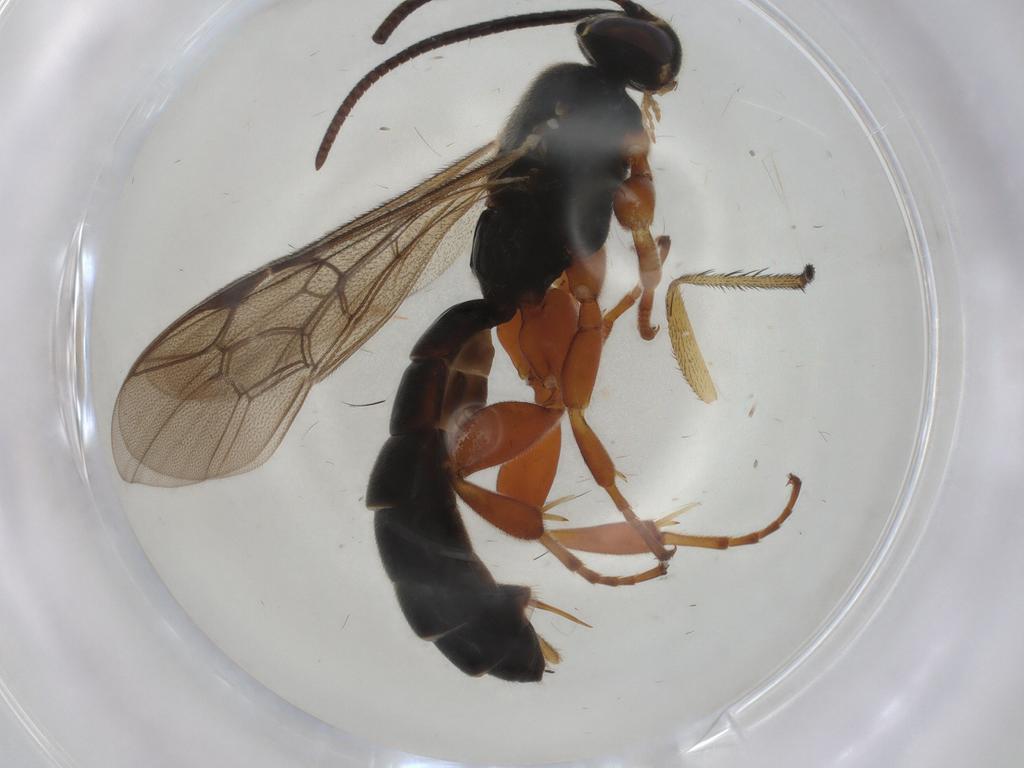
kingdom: Animalia
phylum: Arthropoda
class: Insecta
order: Hymenoptera
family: Ichneumonidae
